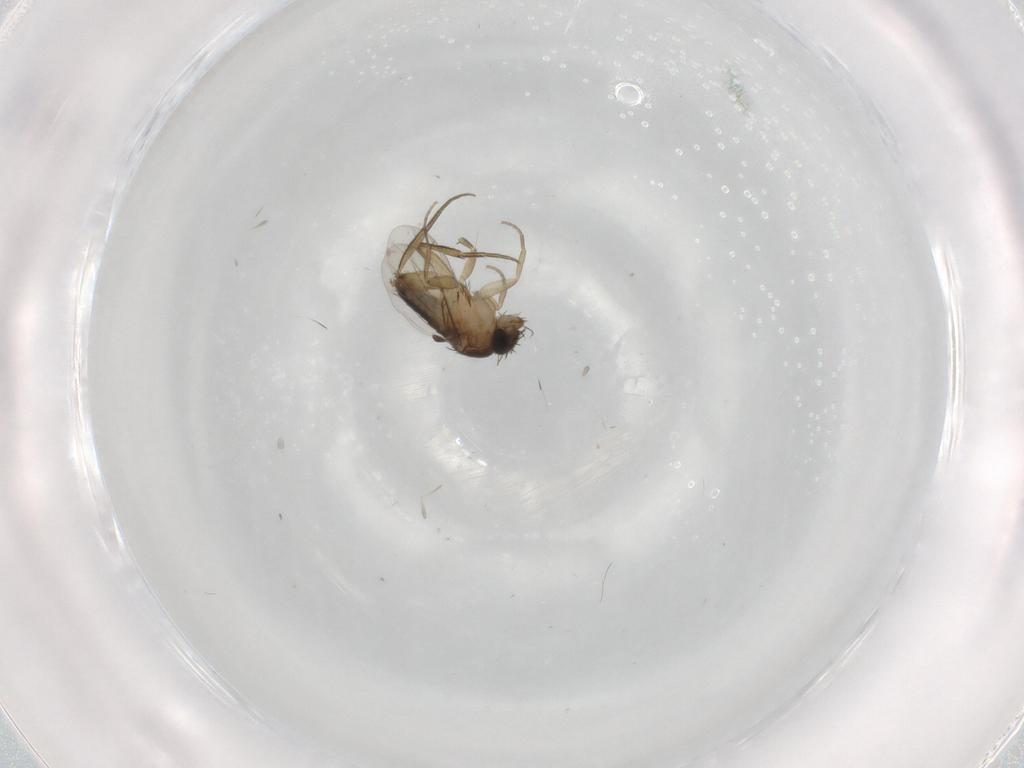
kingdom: Animalia
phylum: Arthropoda
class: Insecta
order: Diptera
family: Phoridae
